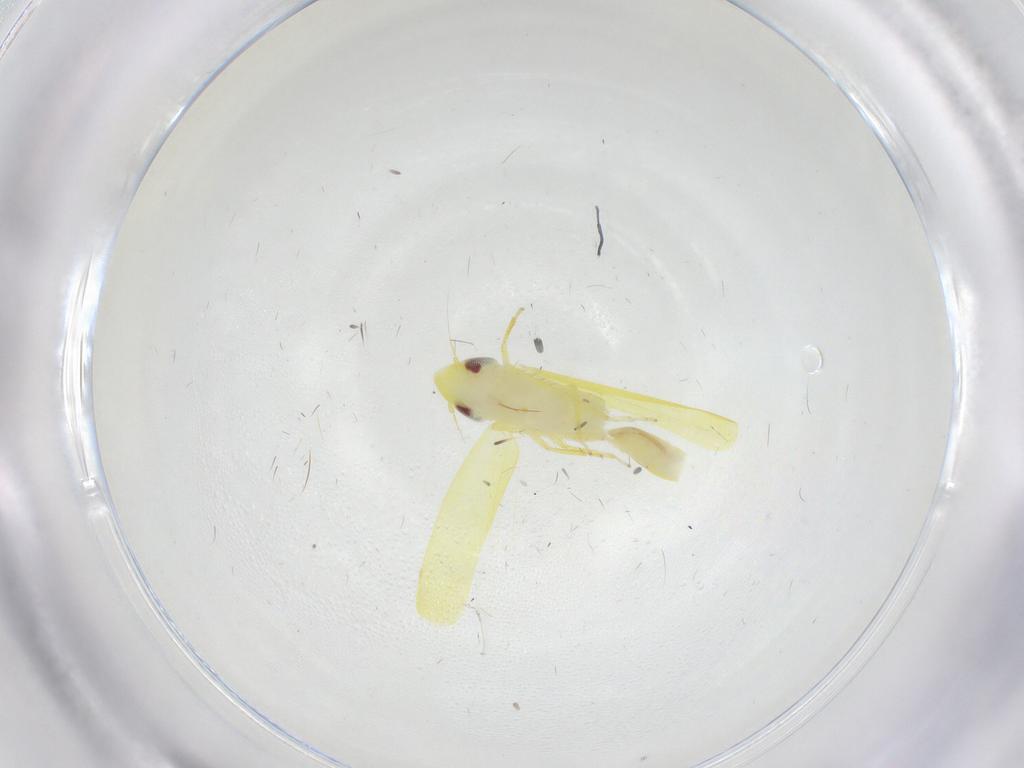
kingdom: Animalia
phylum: Arthropoda
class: Insecta
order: Hemiptera
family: Cicadellidae
